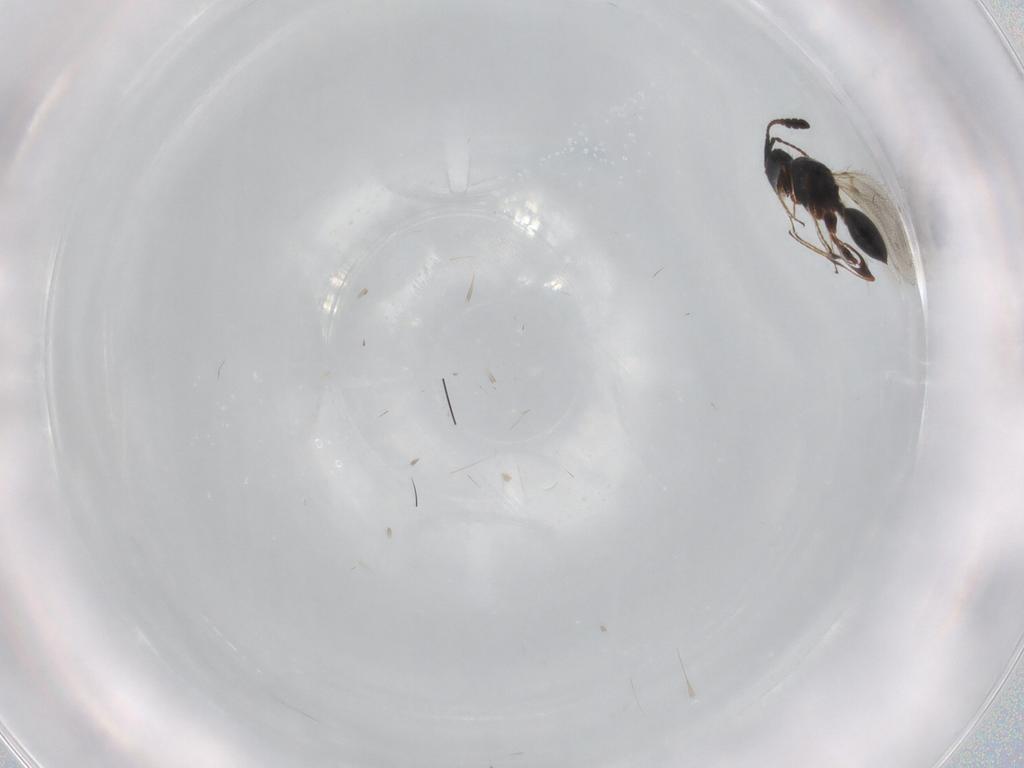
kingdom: Animalia
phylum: Arthropoda
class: Insecta
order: Hymenoptera
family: Diapriidae
